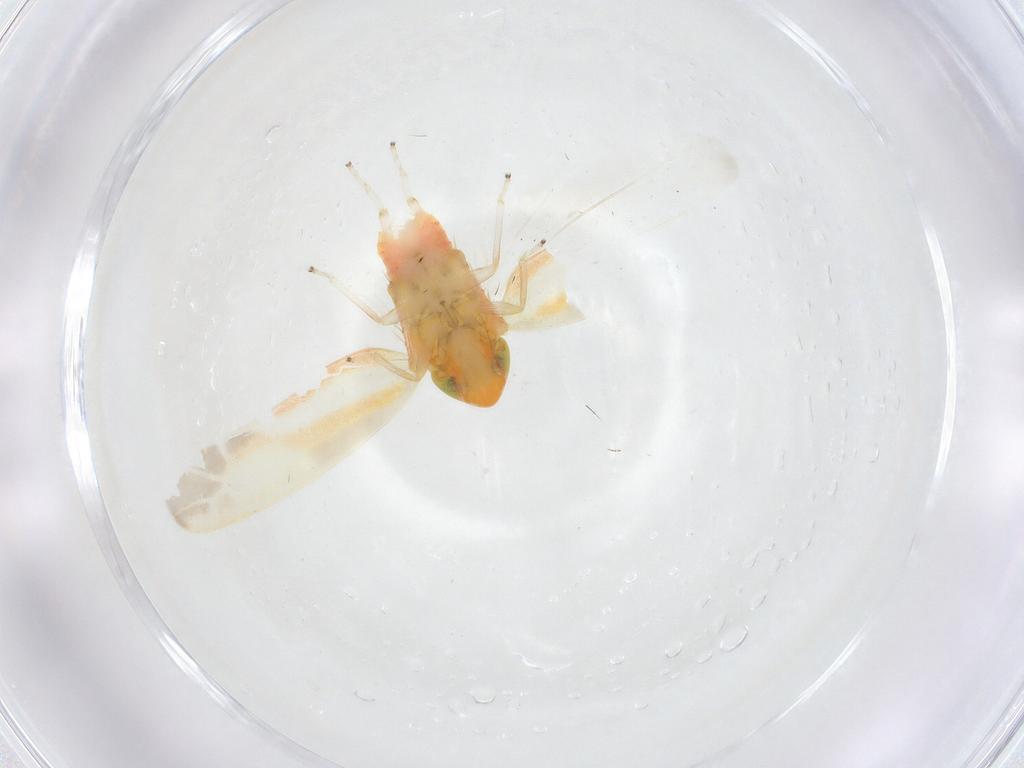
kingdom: Animalia
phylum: Arthropoda
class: Insecta
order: Hemiptera
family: Cicadellidae
